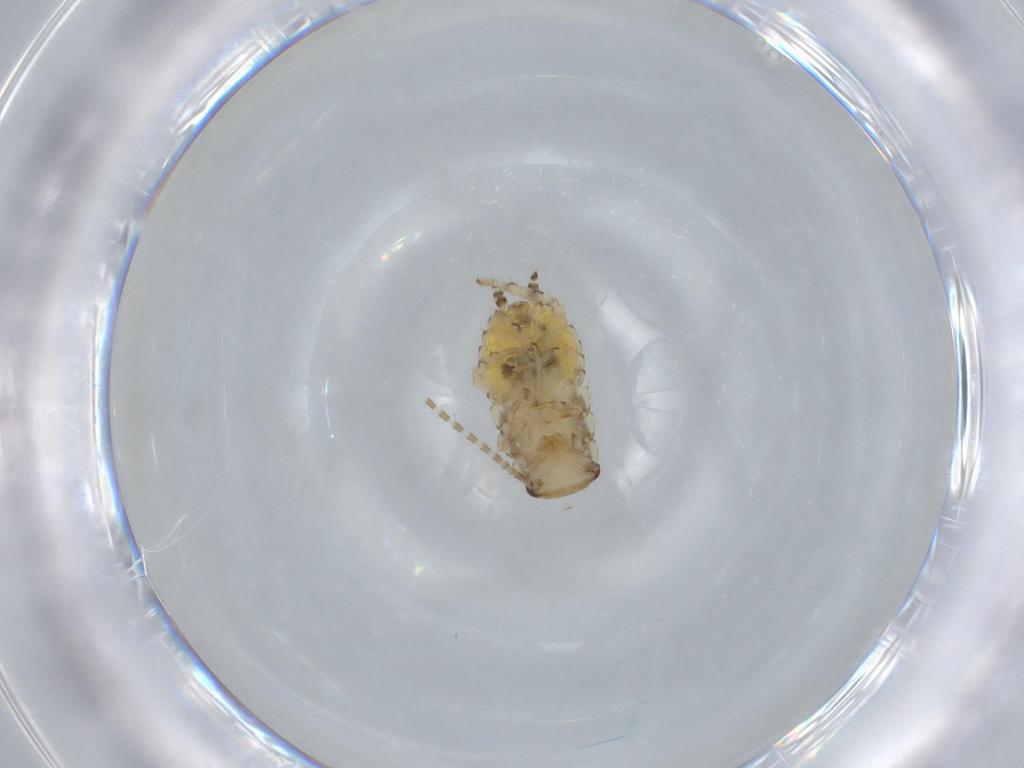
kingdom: Animalia
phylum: Arthropoda
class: Insecta
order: Blattodea
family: Ectobiidae
